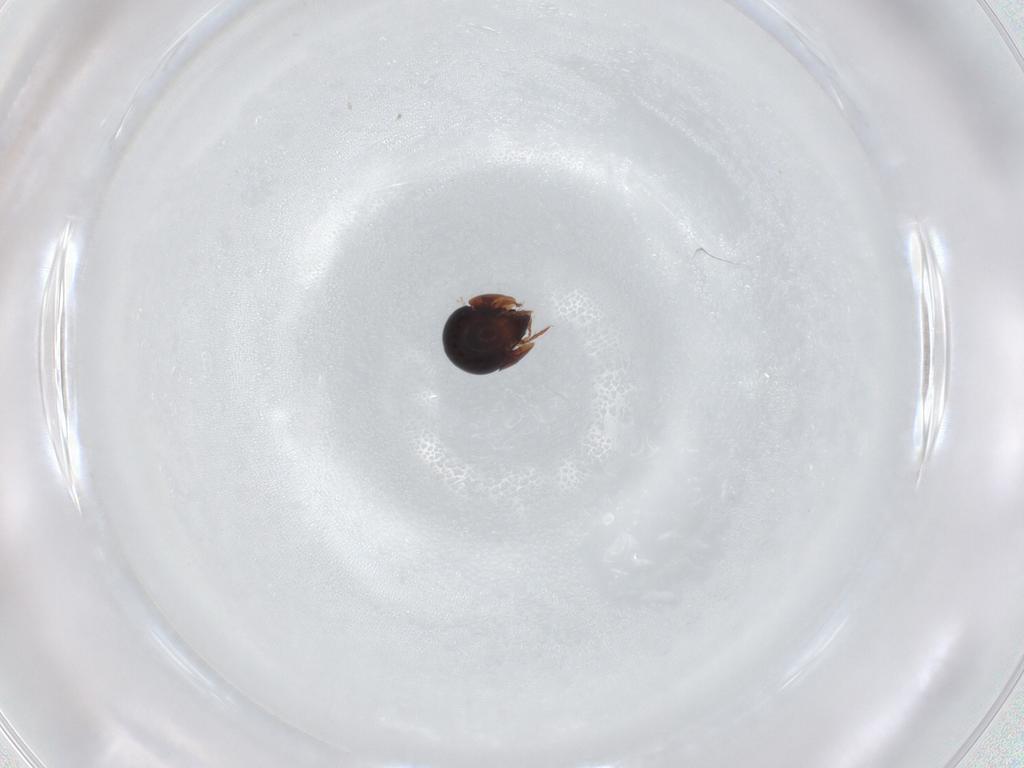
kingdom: Animalia
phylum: Arthropoda
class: Arachnida
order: Sarcoptiformes
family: Ceratozetidae
